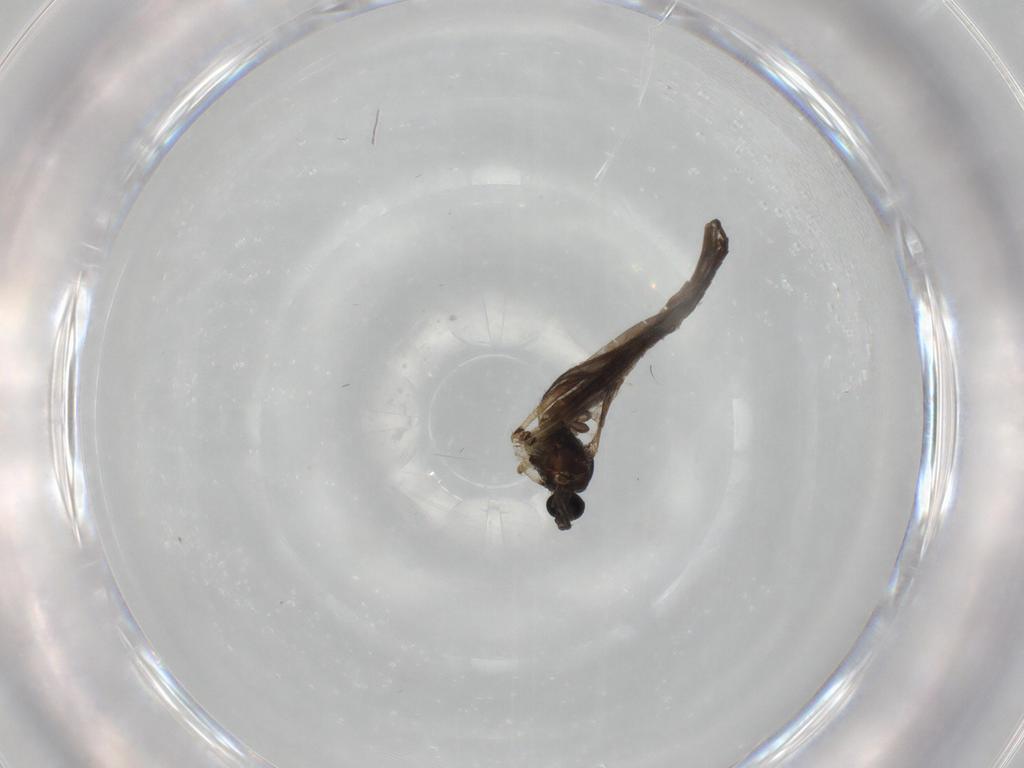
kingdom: Animalia
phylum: Arthropoda
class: Insecta
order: Diptera
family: Sciaridae
